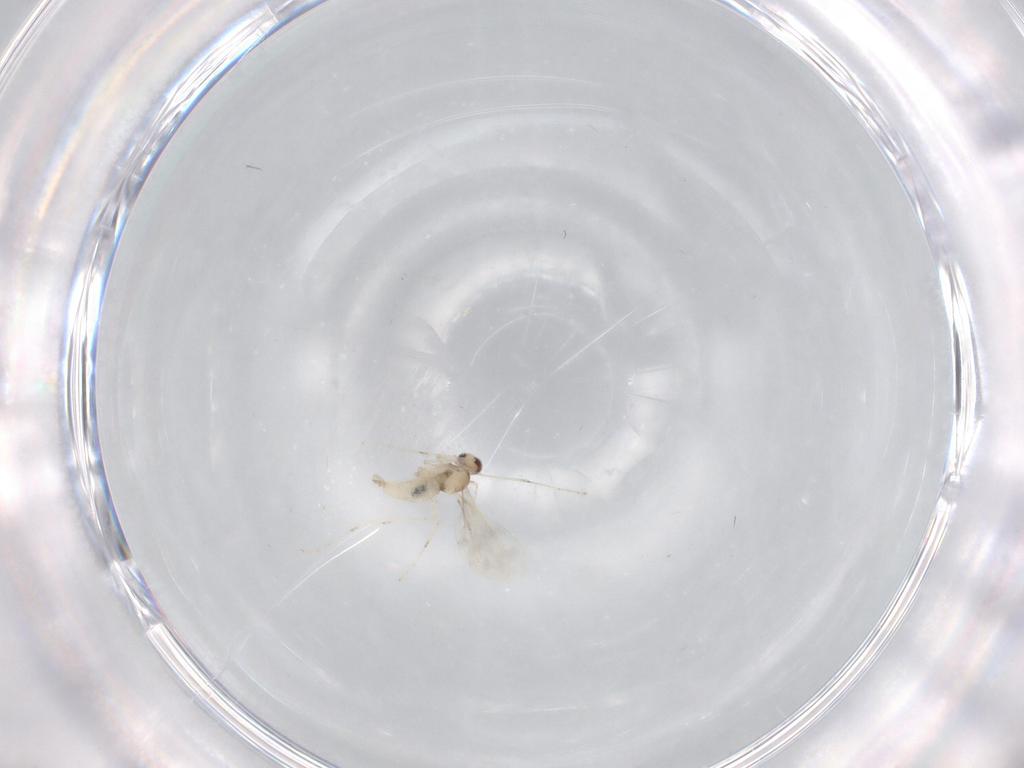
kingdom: Animalia
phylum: Arthropoda
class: Insecta
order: Diptera
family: Cecidomyiidae
